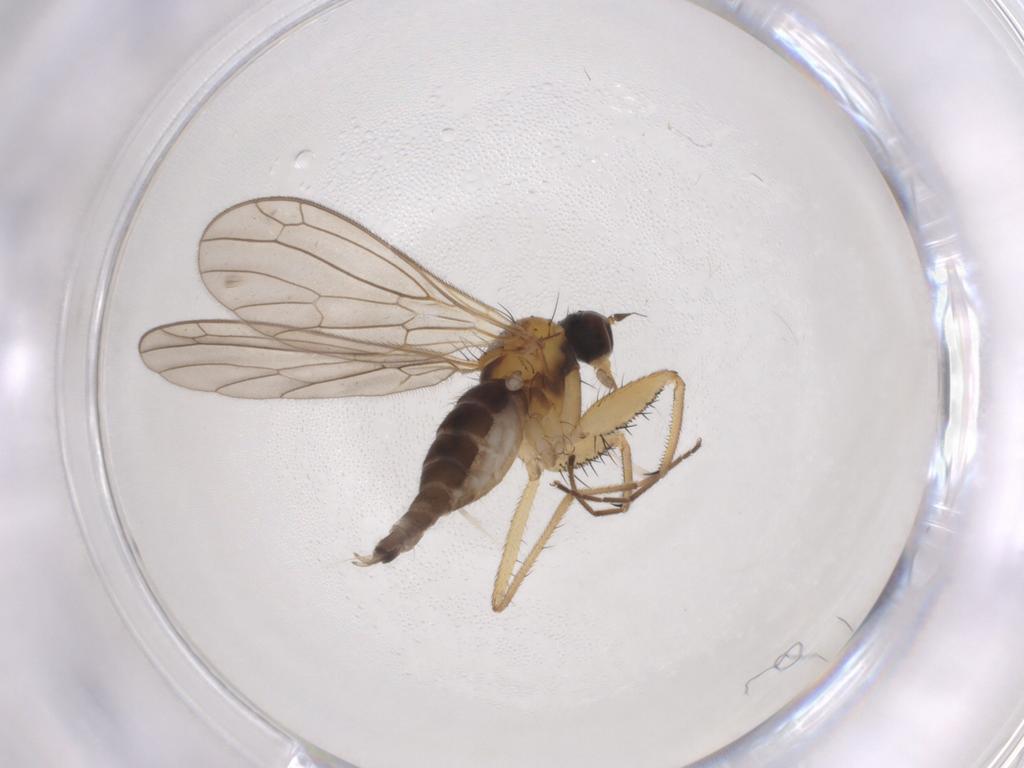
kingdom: Animalia
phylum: Arthropoda
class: Insecta
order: Diptera
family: Empididae
